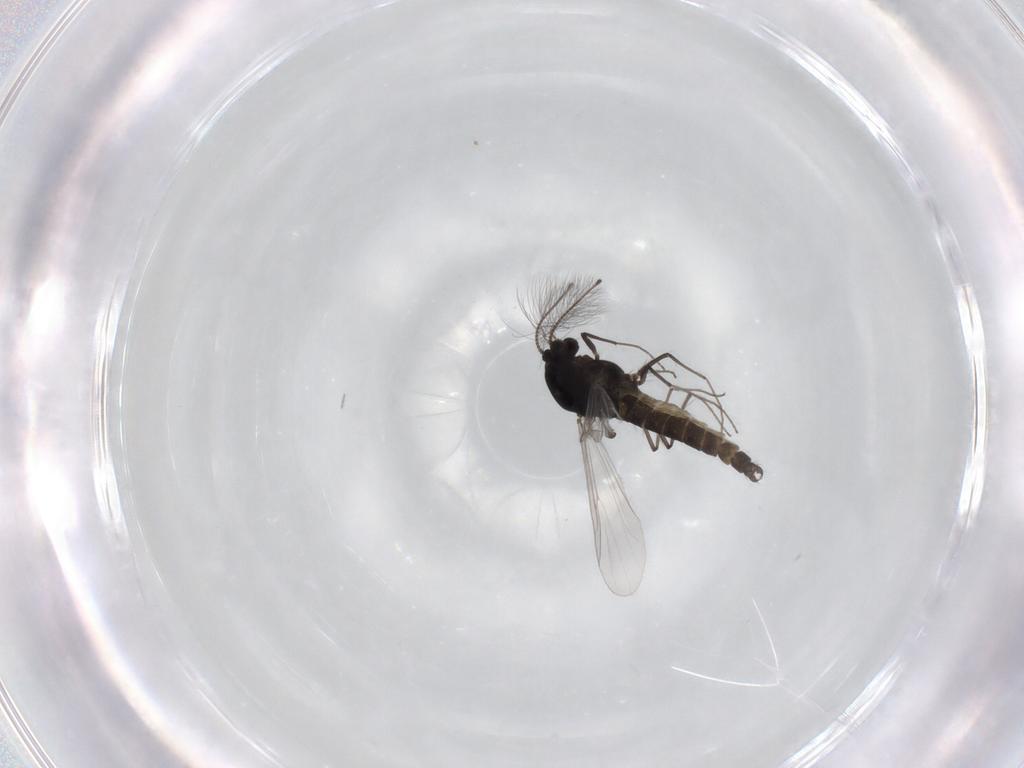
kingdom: Animalia
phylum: Arthropoda
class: Insecta
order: Diptera
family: Chironomidae
